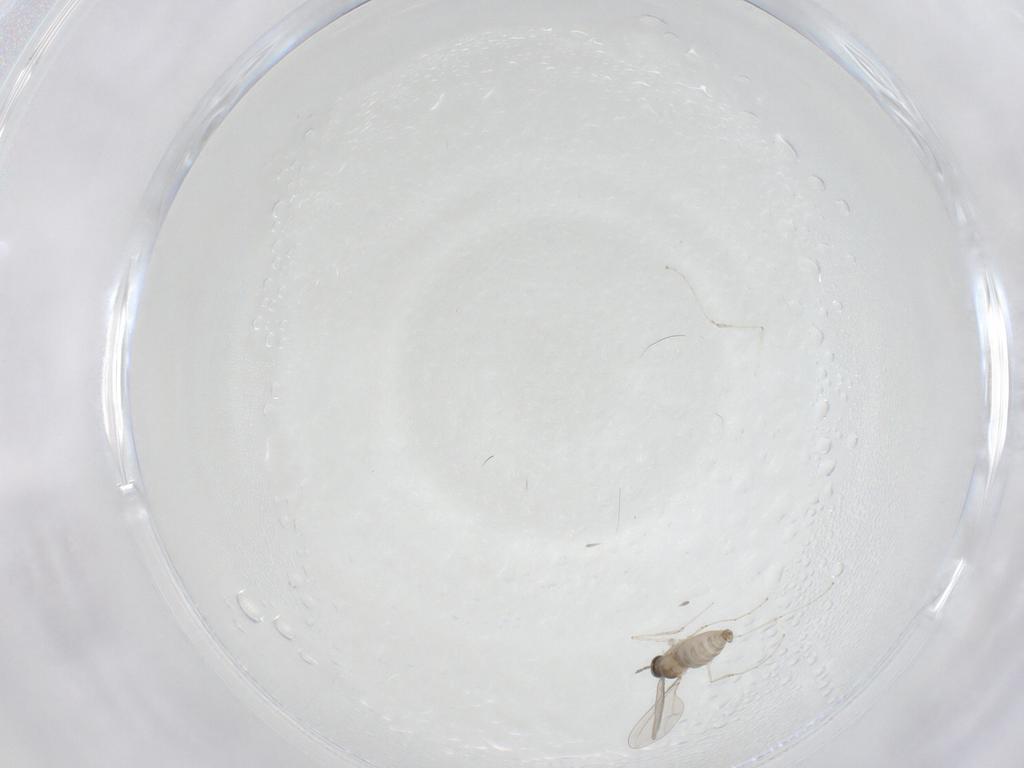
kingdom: Animalia
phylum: Arthropoda
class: Insecta
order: Diptera
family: Cecidomyiidae
